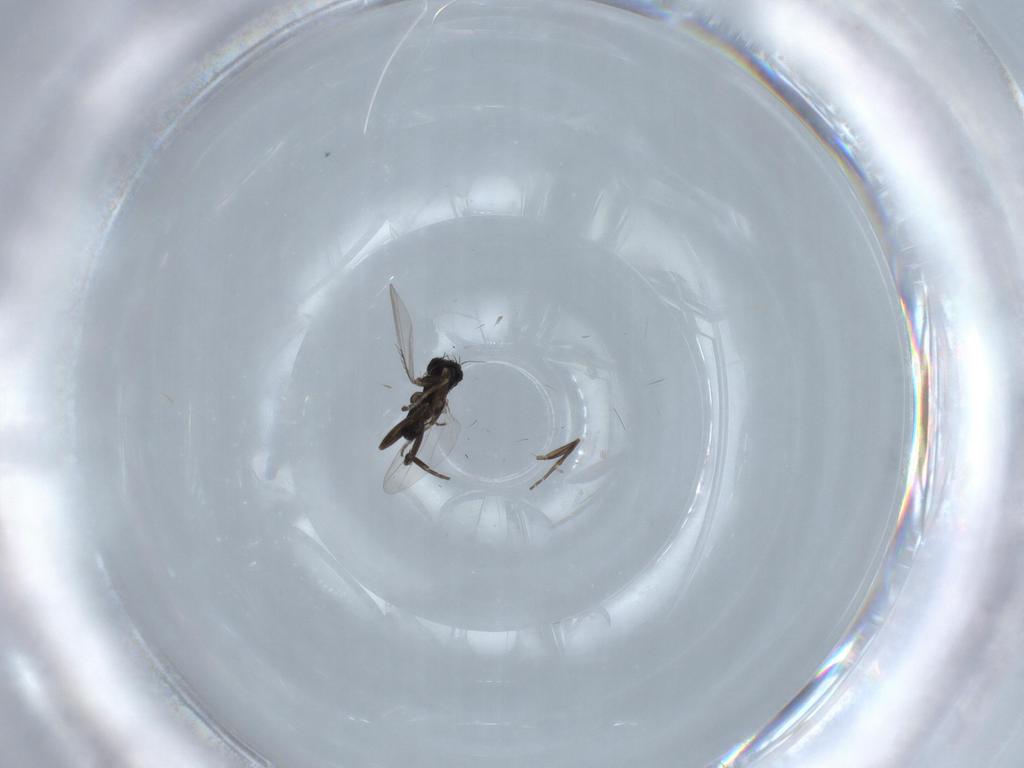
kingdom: Animalia
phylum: Arthropoda
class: Insecta
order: Diptera
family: Phoridae
